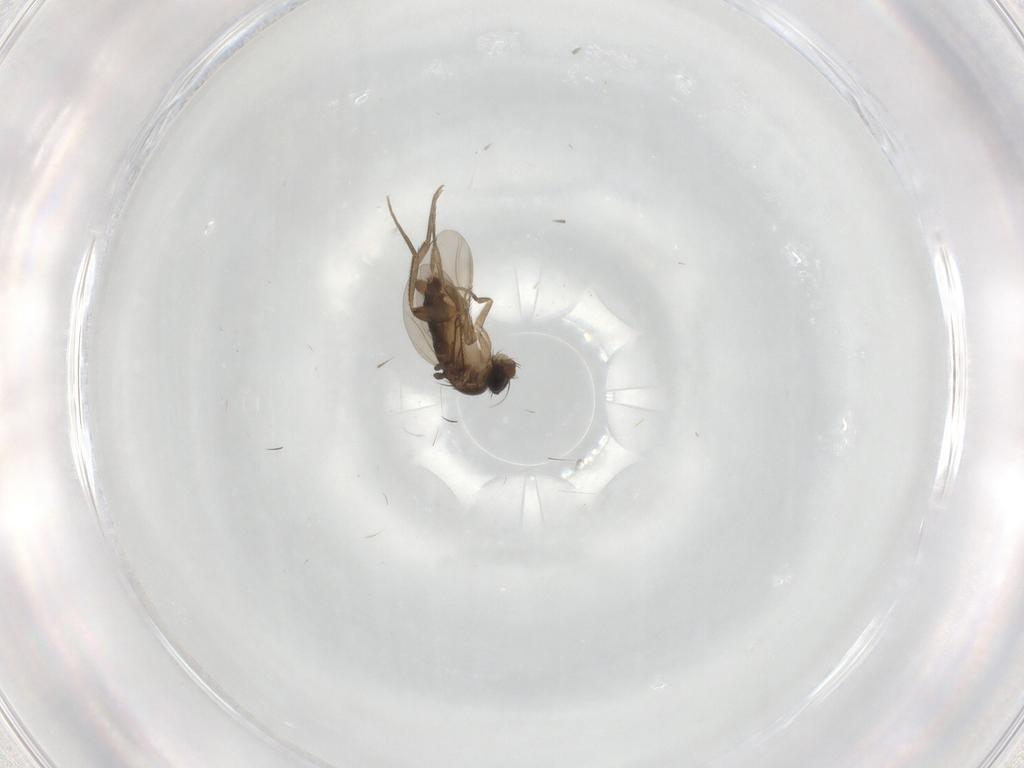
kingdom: Animalia
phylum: Arthropoda
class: Insecta
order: Diptera
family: Phoridae
